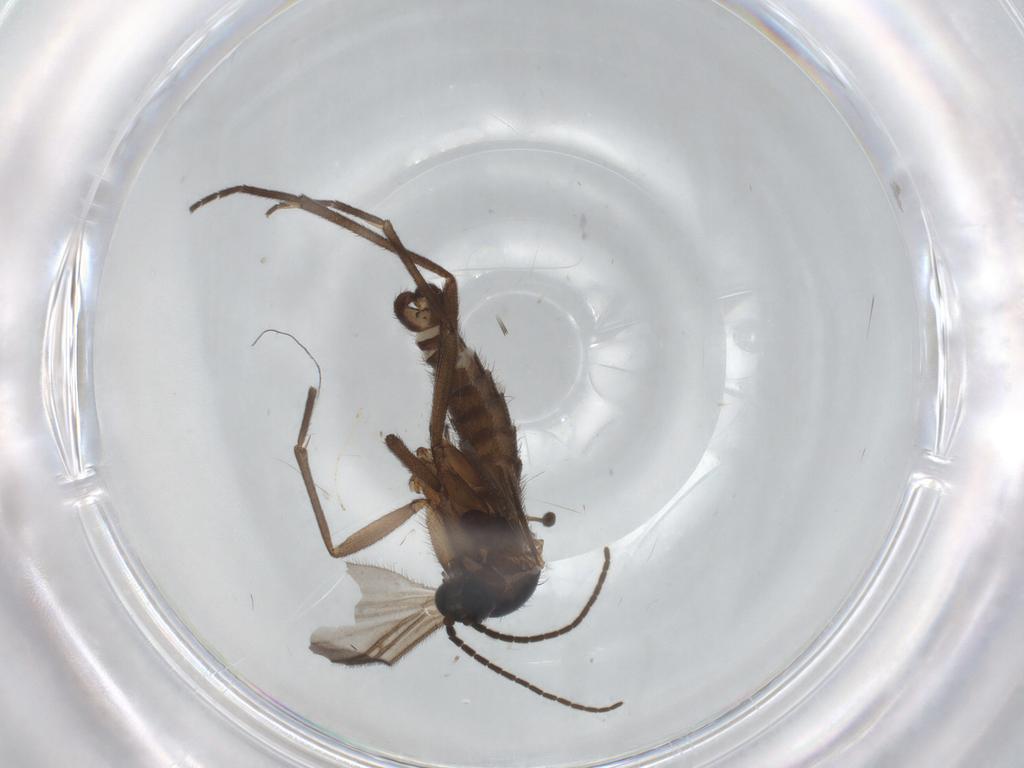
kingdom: Animalia
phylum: Arthropoda
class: Insecta
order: Diptera
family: Sciaridae
